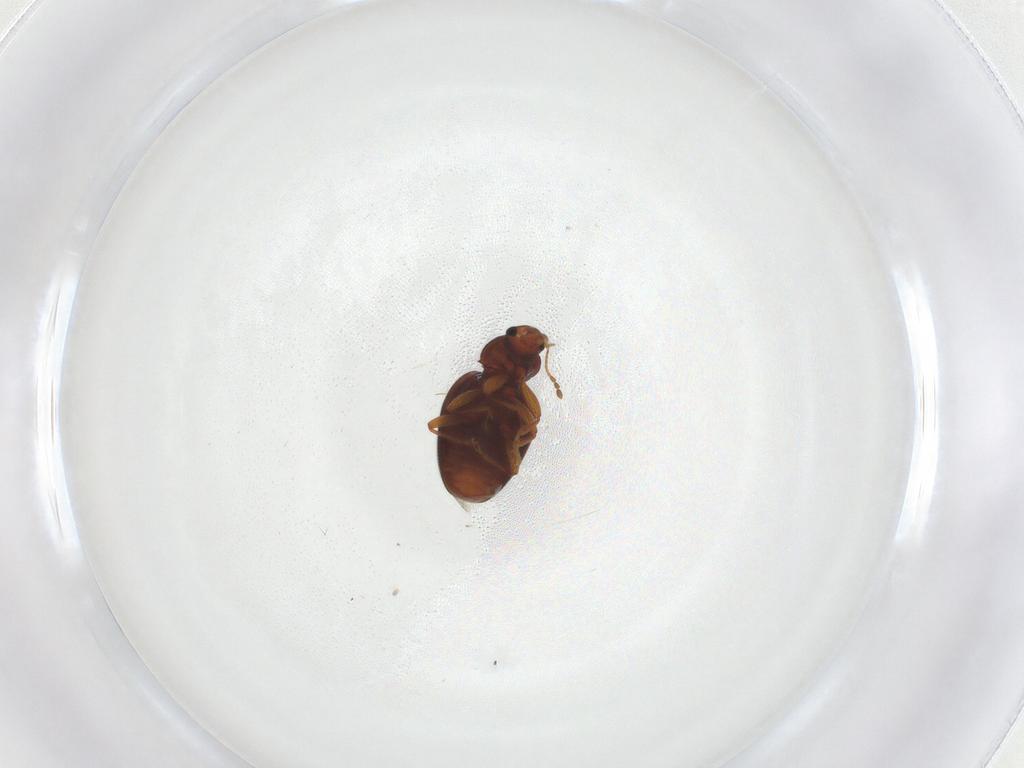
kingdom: Animalia
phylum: Arthropoda
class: Insecta
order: Coleoptera
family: Latridiidae
